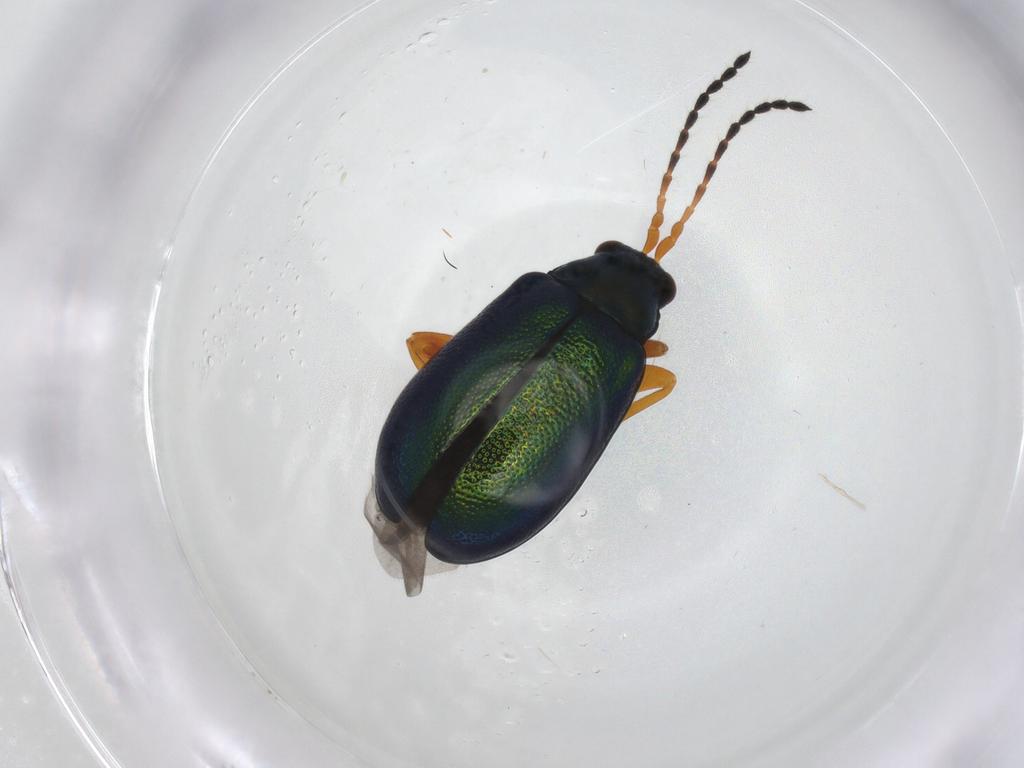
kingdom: Animalia
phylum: Arthropoda
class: Insecta
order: Coleoptera
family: Chrysomelidae
